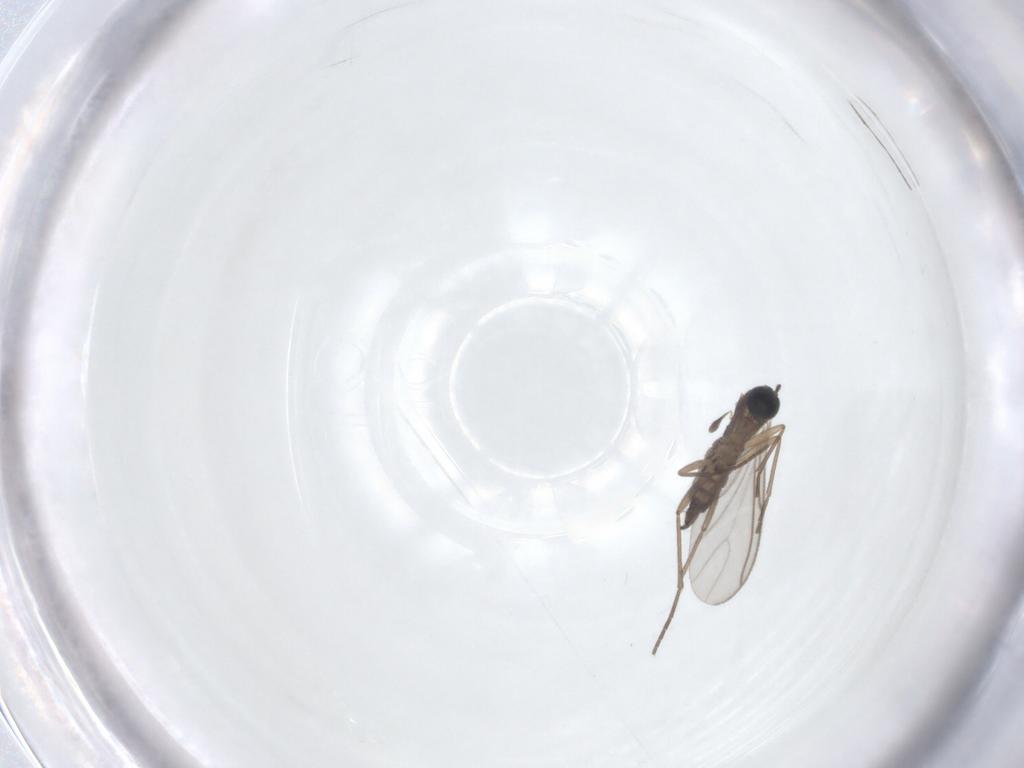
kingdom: Animalia
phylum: Arthropoda
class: Insecta
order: Diptera
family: Sciaridae
